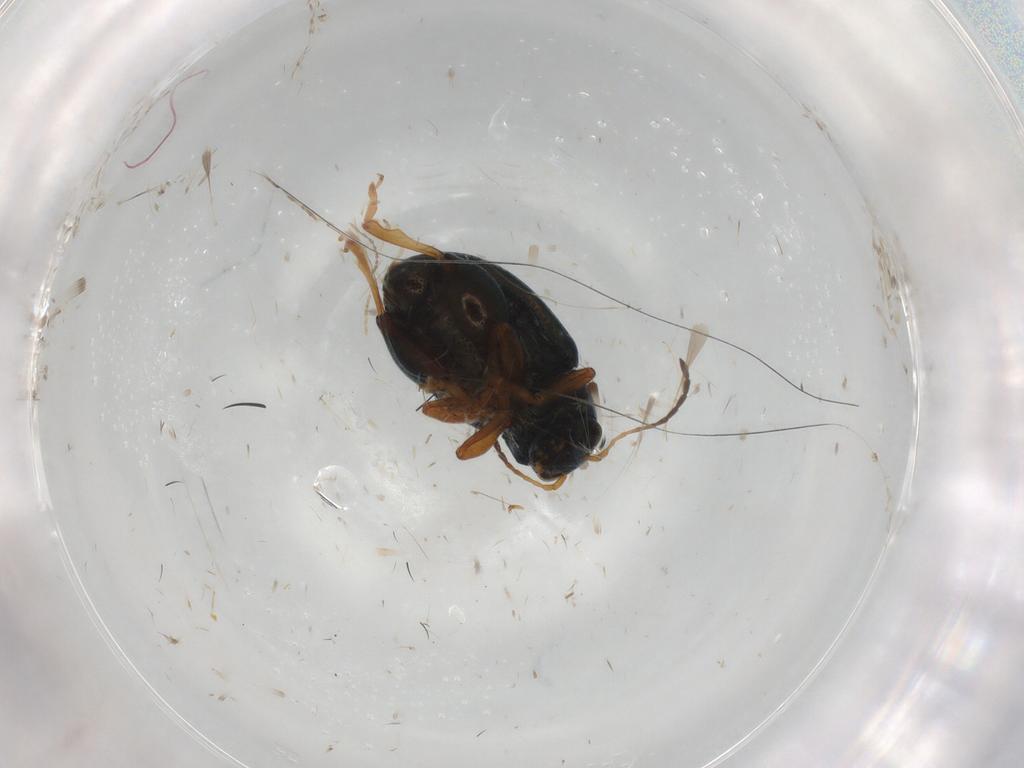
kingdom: Animalia
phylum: Arthropoda
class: Insecta
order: Coleoptera
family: Chrysomelidae
